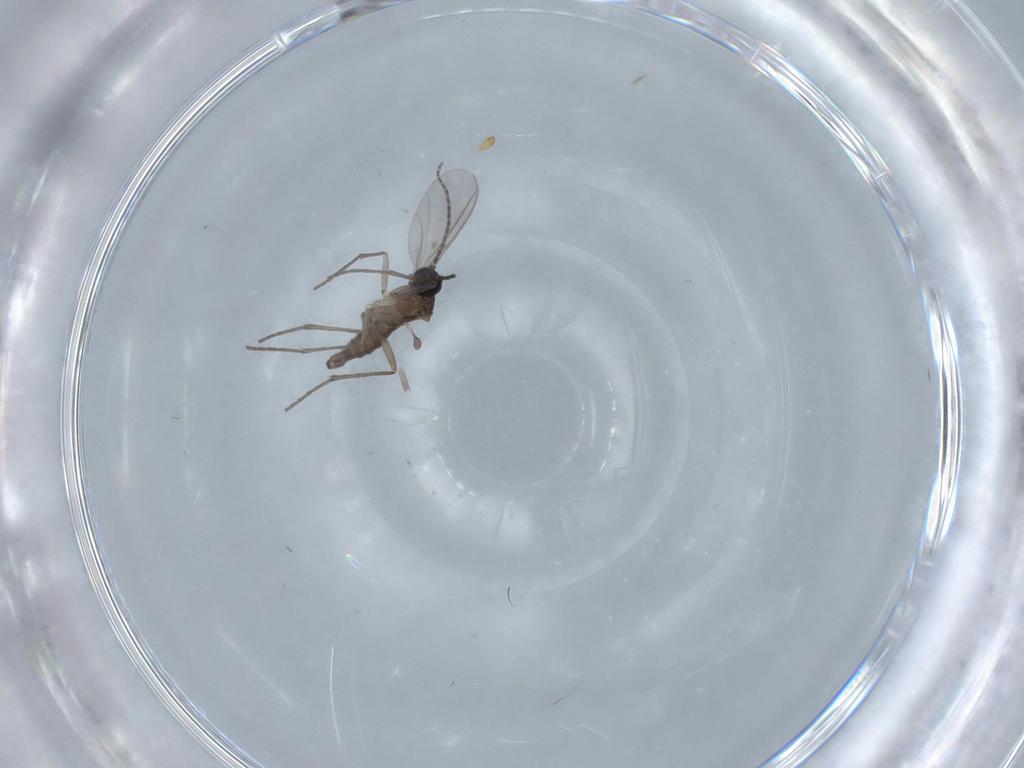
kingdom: Animalia
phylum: Arthropoda
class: Insecta
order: Diptera
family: Sciaridae
